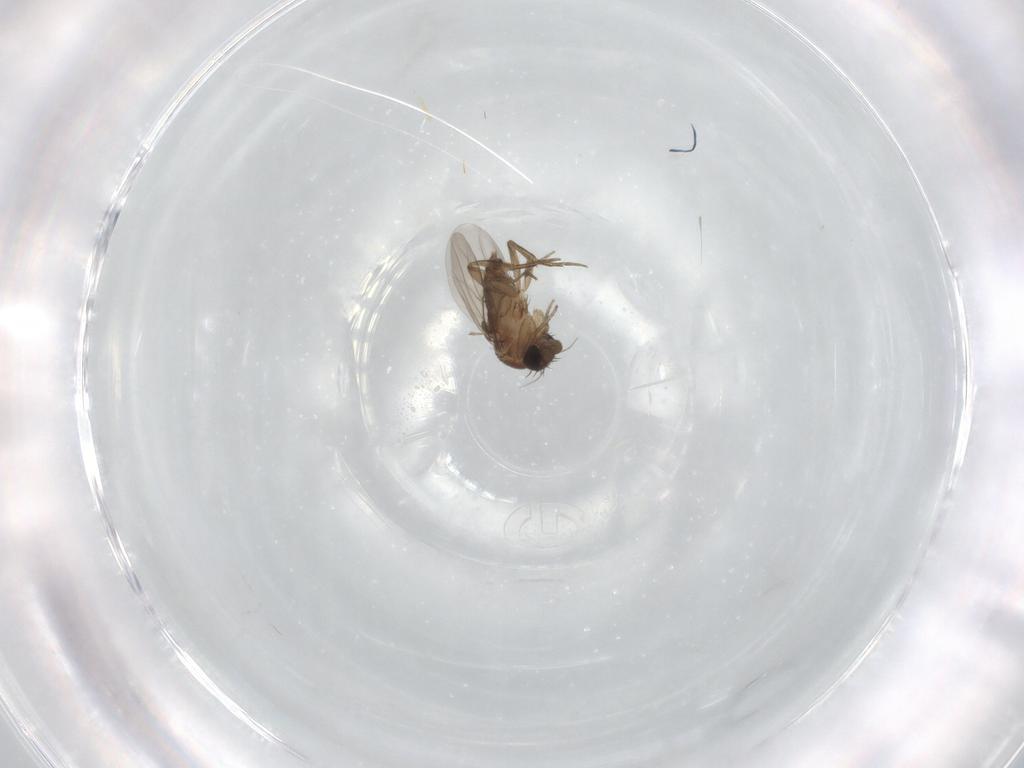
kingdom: Animalia
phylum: Arthropoda
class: Insecta
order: Diptera
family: Phoridae
